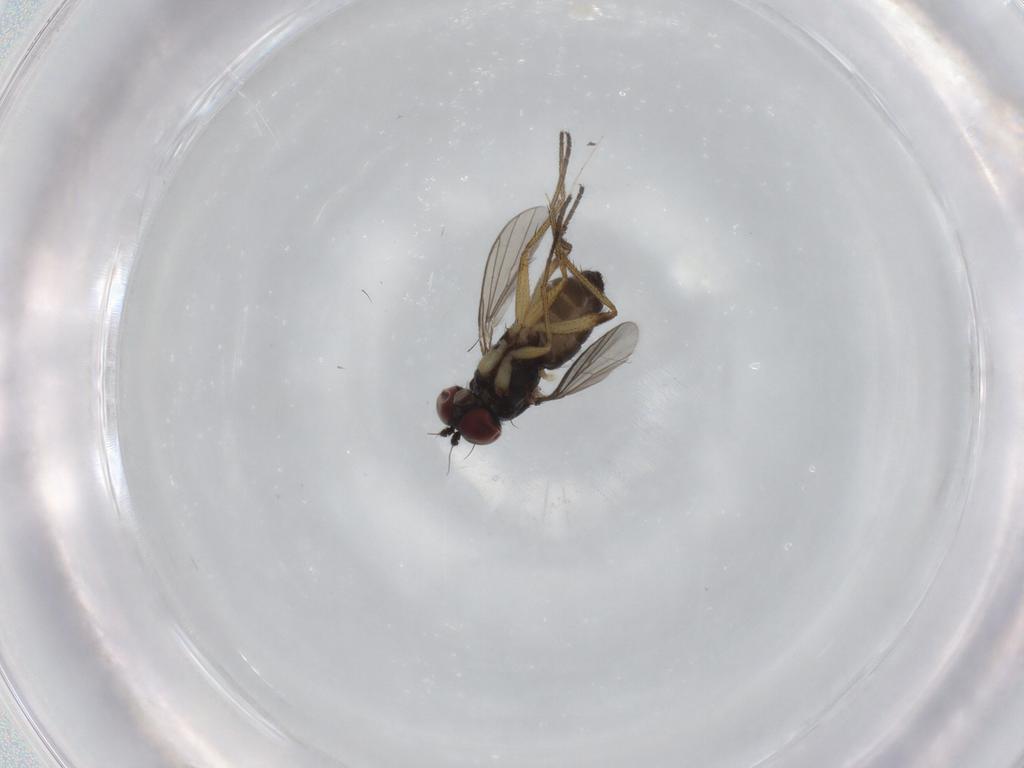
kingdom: Animalia
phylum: Arthropoda
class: Insecta
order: Diptera
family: Dolichopodidae
